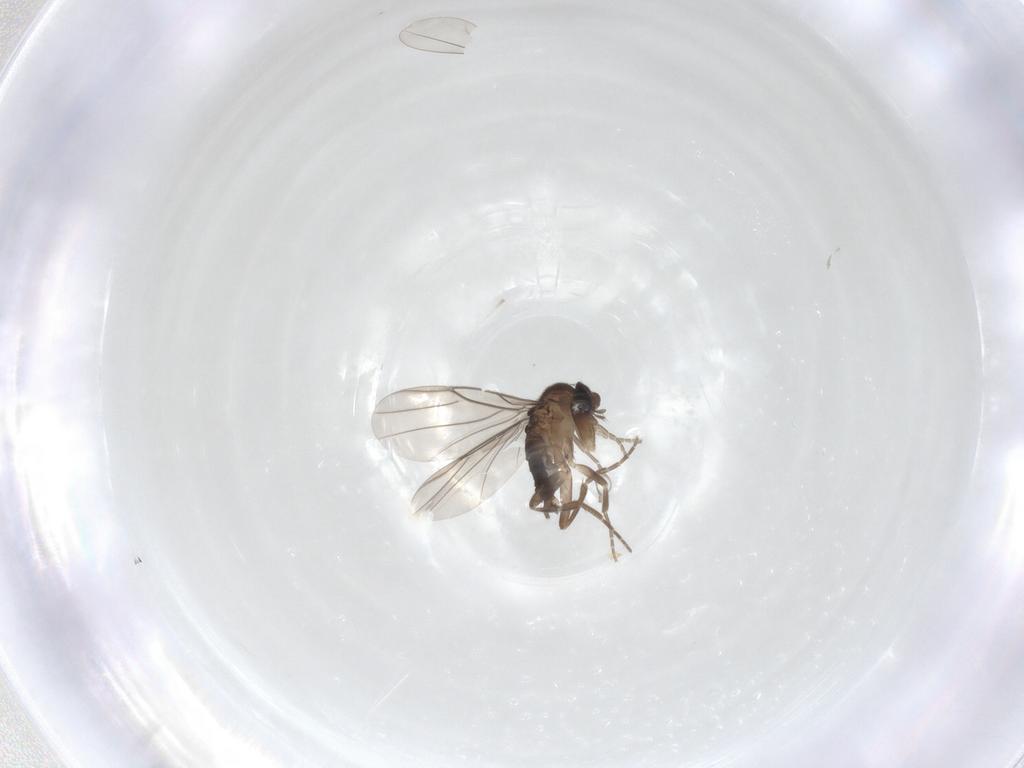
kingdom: Animalia
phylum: Arthropoda
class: Insecta
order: Diptera
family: Phoridae
